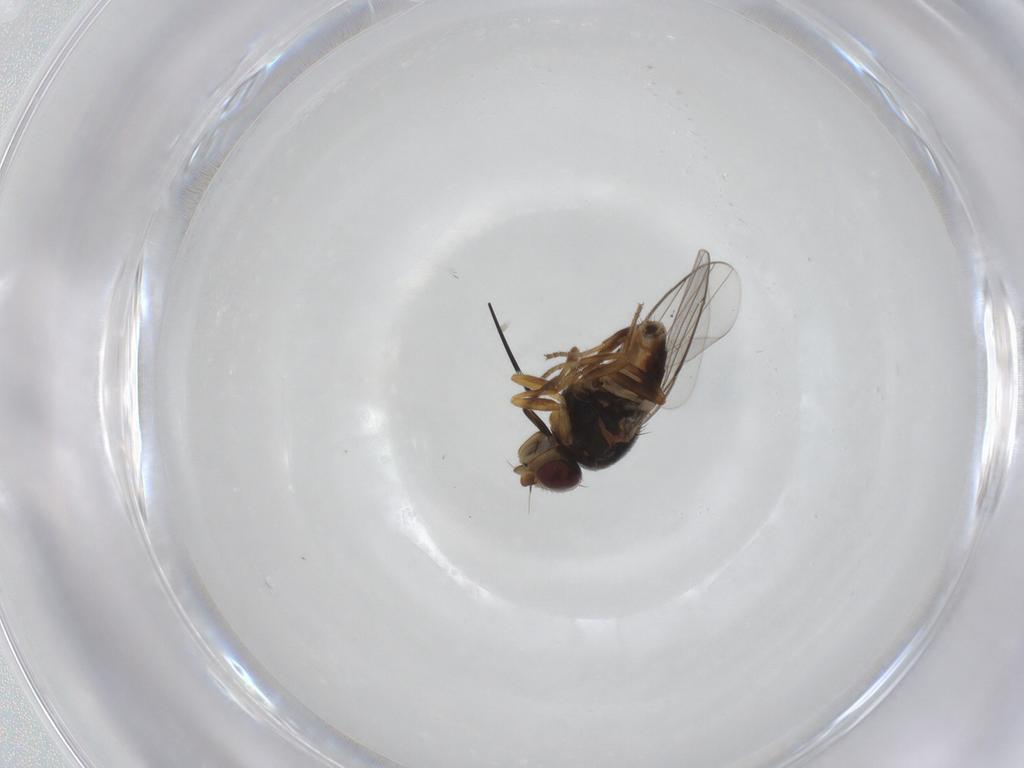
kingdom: Animalia
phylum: Arthropoda
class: Insecta
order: Diptera
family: Chloropidae
